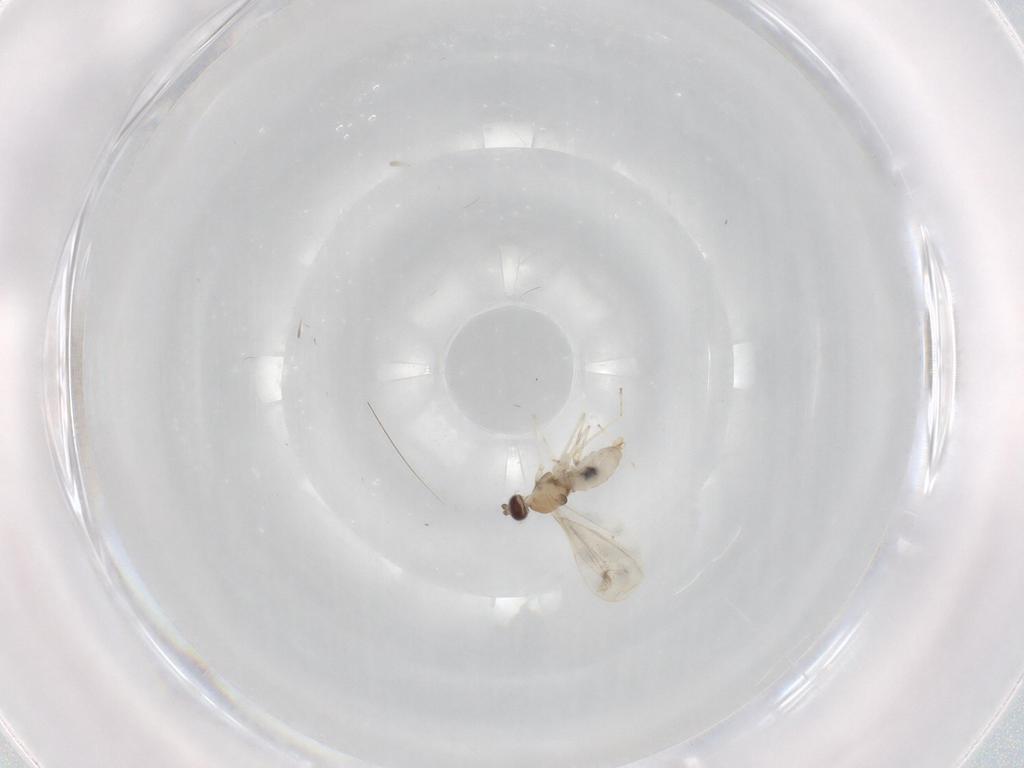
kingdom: Animalia
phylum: Arthropoda
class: Insecta
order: Diptera
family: Cecidomyiidae
